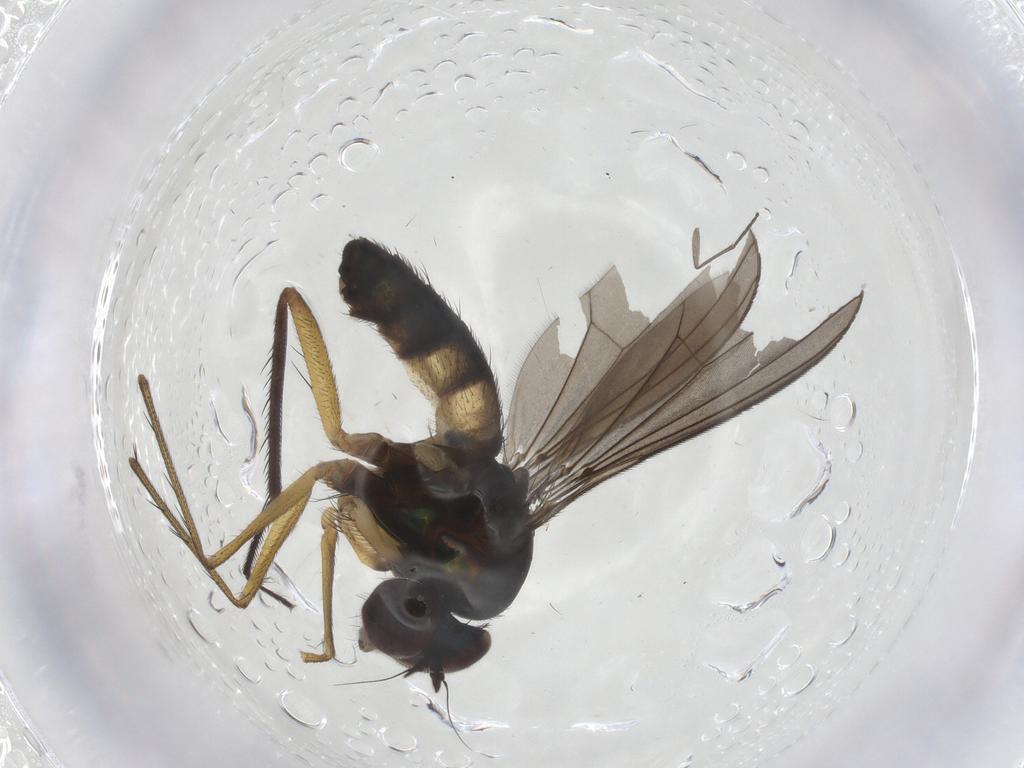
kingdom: Animalia
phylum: Arthropoda
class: Insecta
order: Diptera
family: Dolichopodidae
